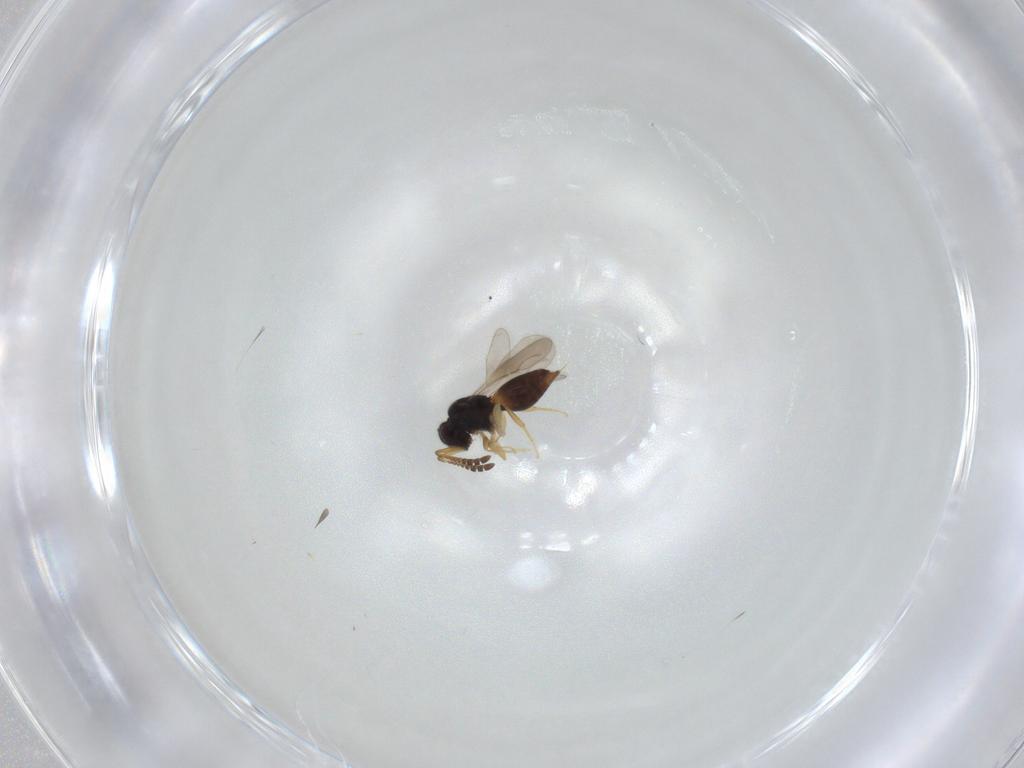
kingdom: Animalia
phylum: Arthropoda
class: Insecta
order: Hymenoptera
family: Ceraphronidae
